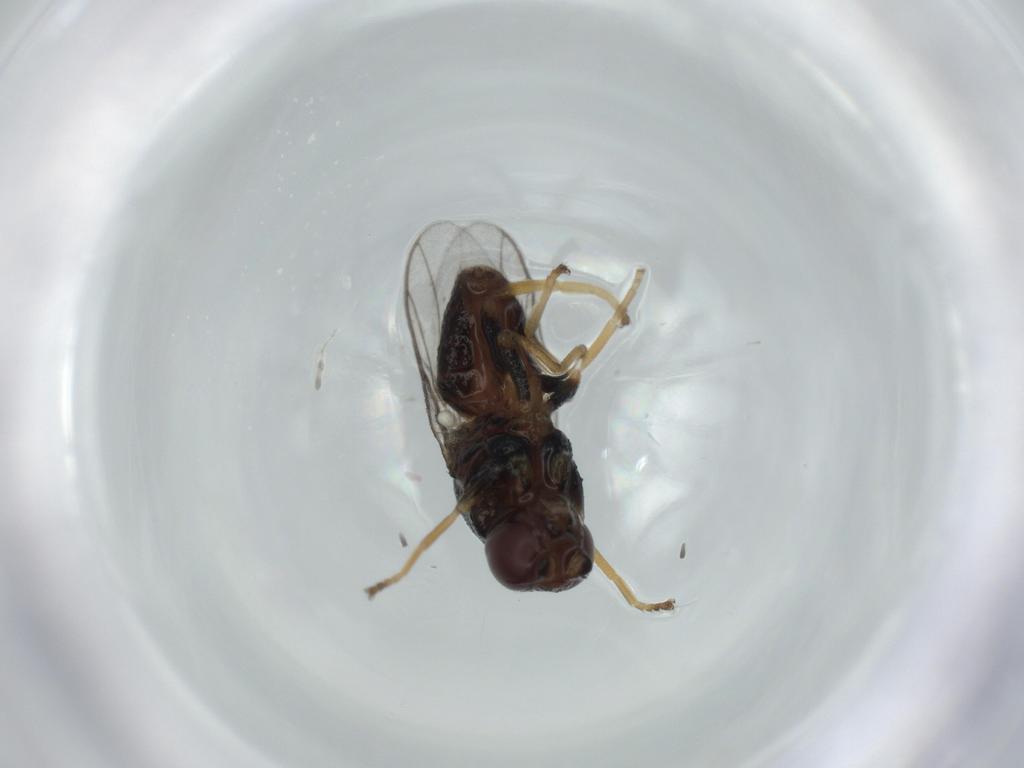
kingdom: Animalia
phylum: Arthropoda
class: Insecta
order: Diptera
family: Chloropidae
